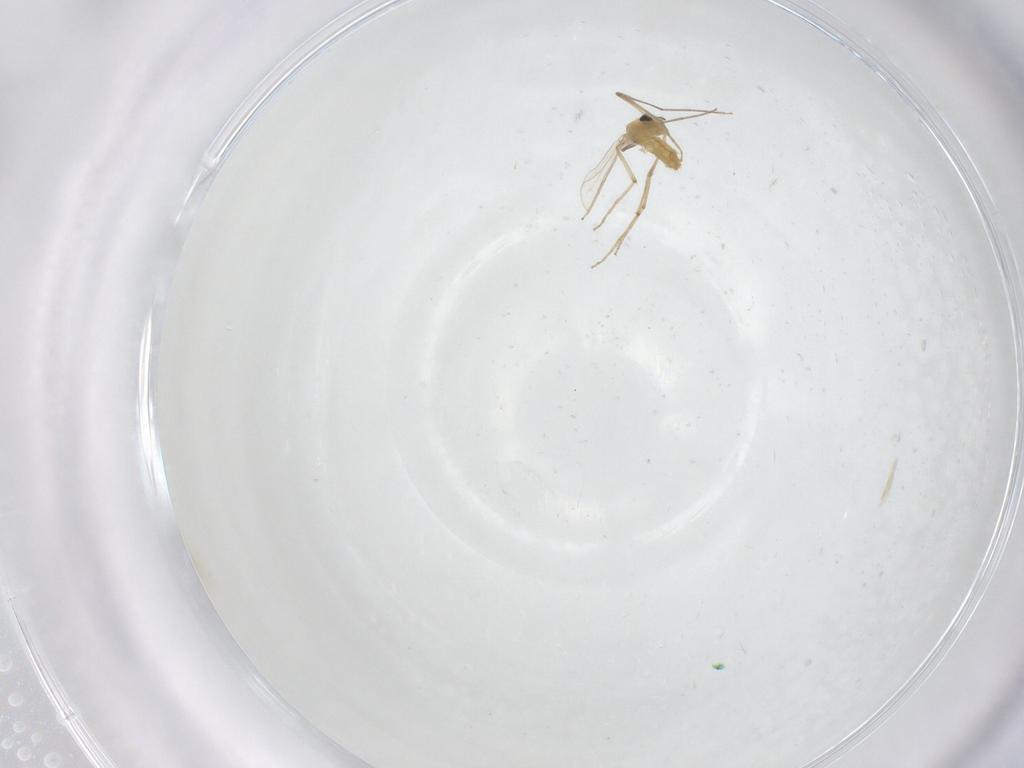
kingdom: Animalia
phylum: Arthropoda
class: Insecta
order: Diptera
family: Chironomidae
